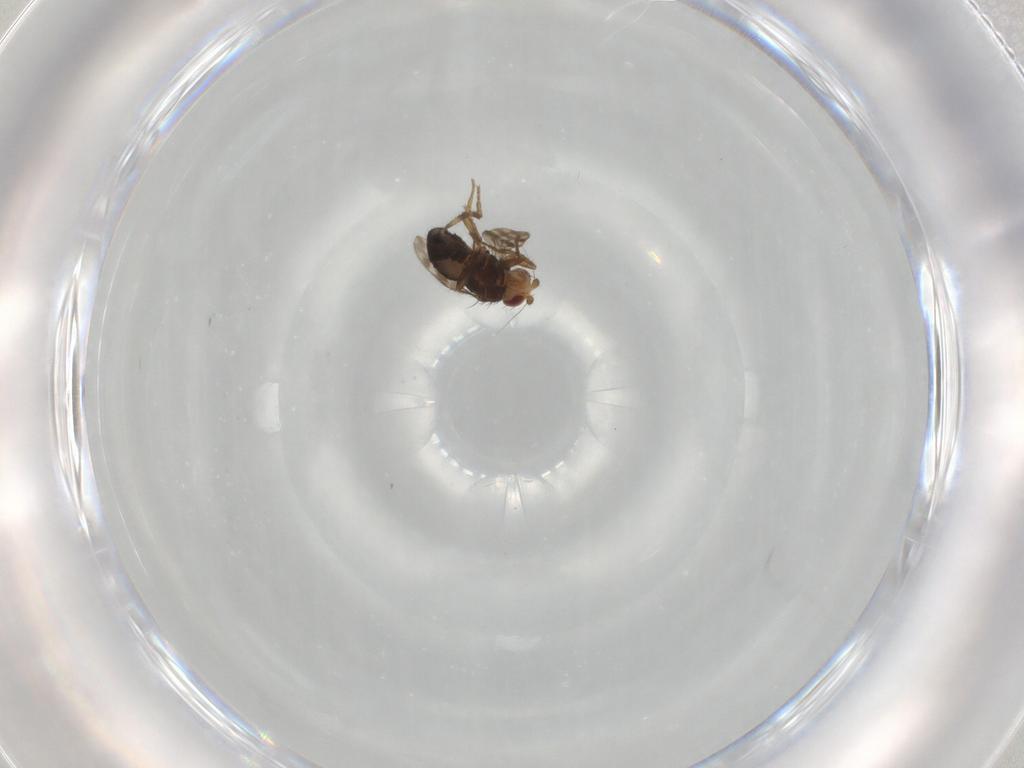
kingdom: Animalia
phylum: Arthropoda
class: Insecta
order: Diptera
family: Sphaeroceridae
